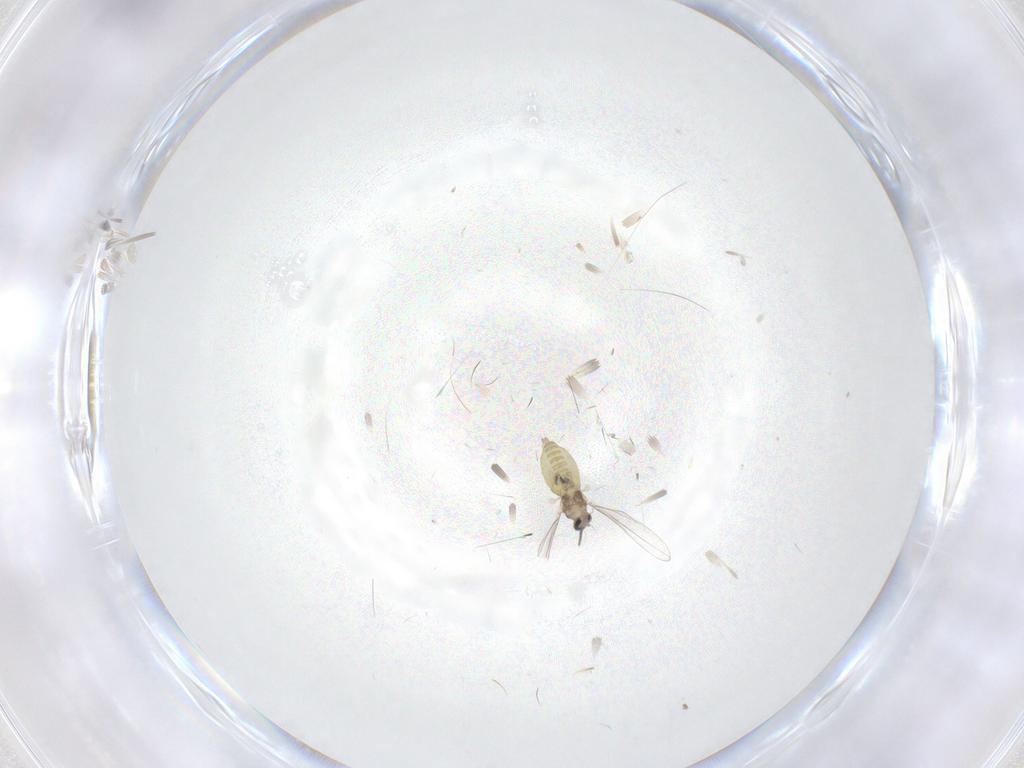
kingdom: Animalia
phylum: Arthropoda
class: Insecta
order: Diptera
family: Cecidomyiidae
